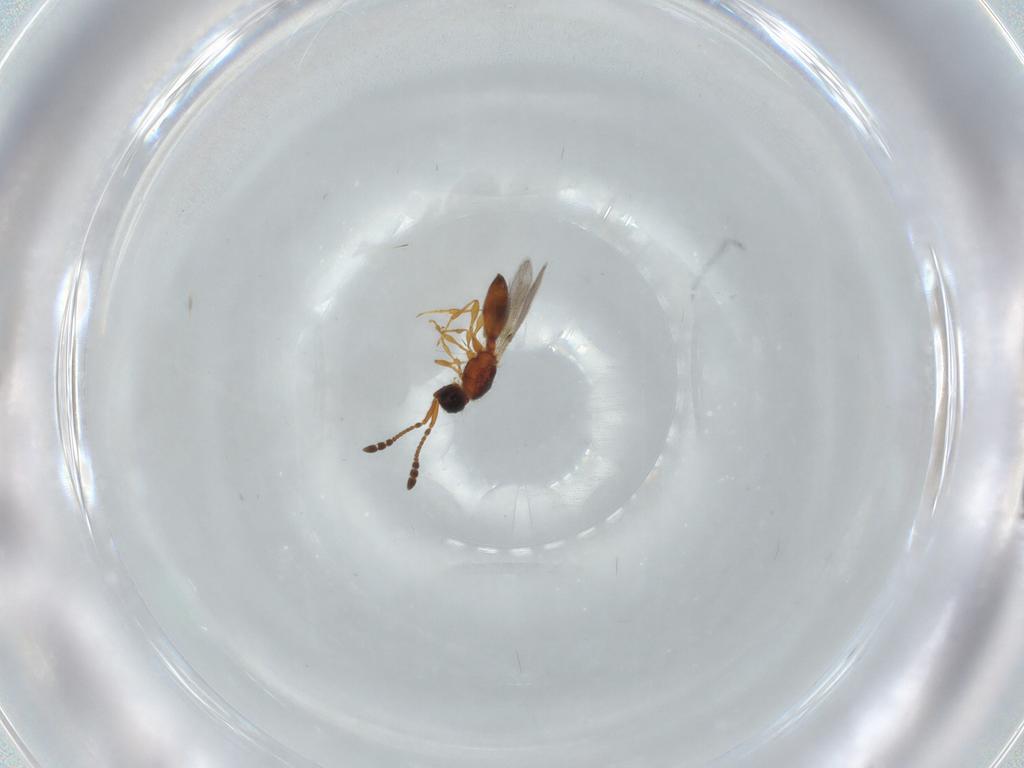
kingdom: Animalia
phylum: Arthropoda
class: Insecta
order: Hymenoptera
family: Diapriidae
